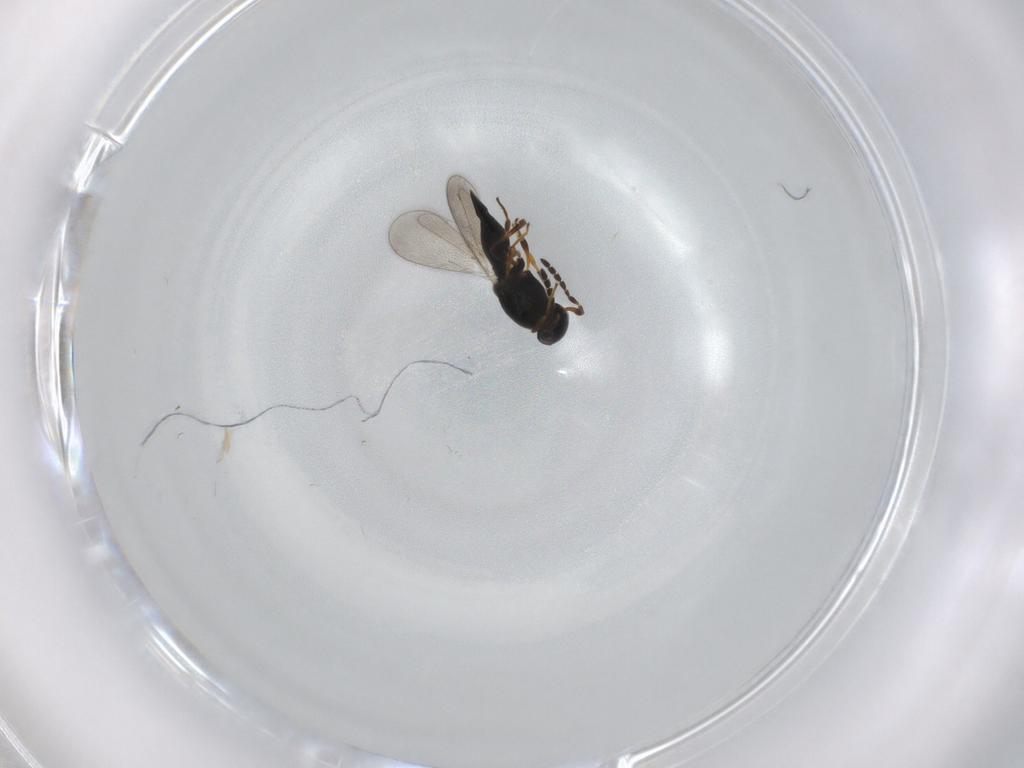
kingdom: Animalia
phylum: Arthropoda
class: Insecta
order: Hymenoptera
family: Platygastridae
